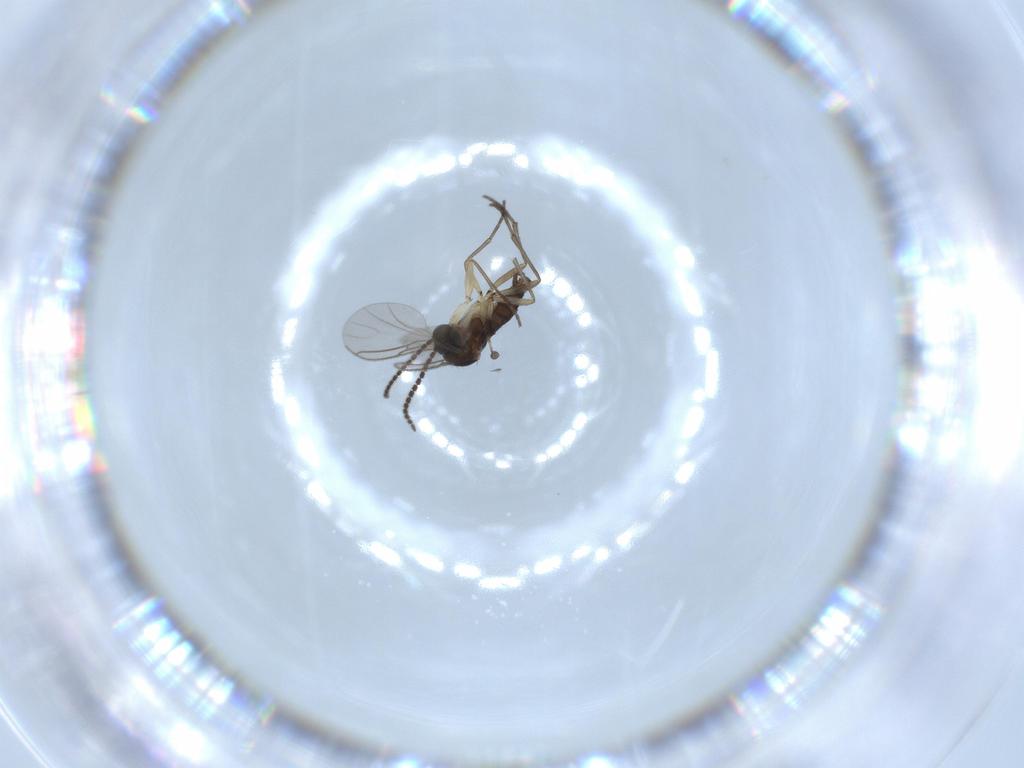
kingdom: Animalia
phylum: Arthropoda
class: Insecta
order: Diptera
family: Sciaridae
